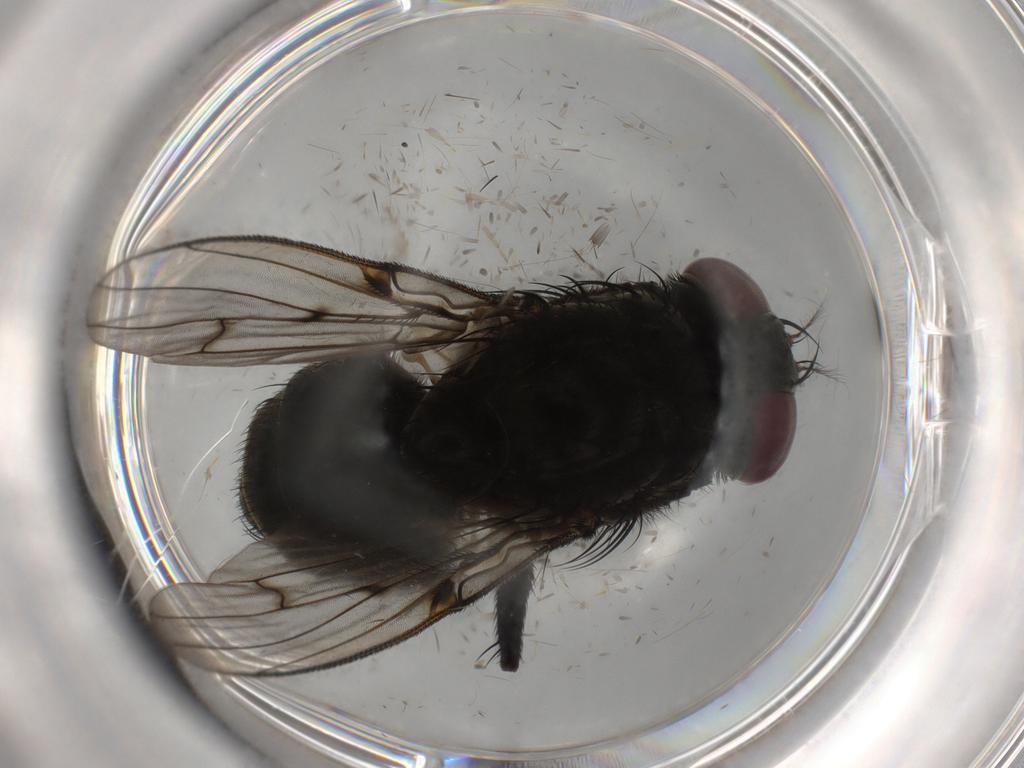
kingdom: Animalia
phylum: Arthropoda
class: Insecta
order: Diptera
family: Muscidae
